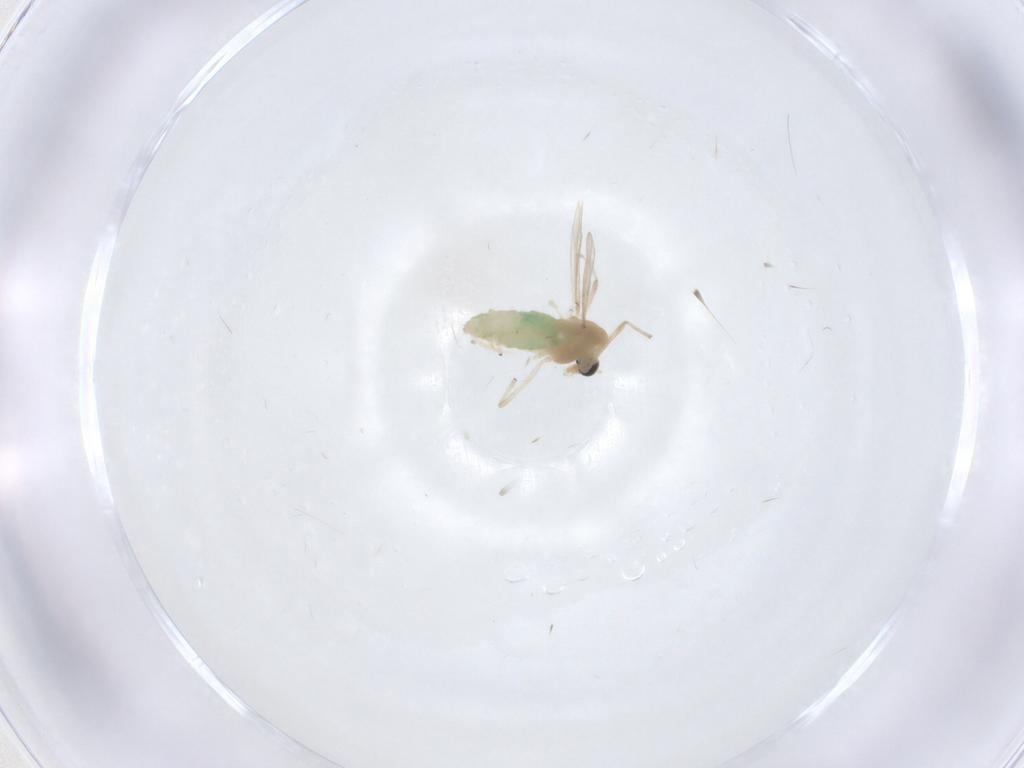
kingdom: Animalia
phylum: Arthropoda
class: Insecta
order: Diptera
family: Chironomidae
